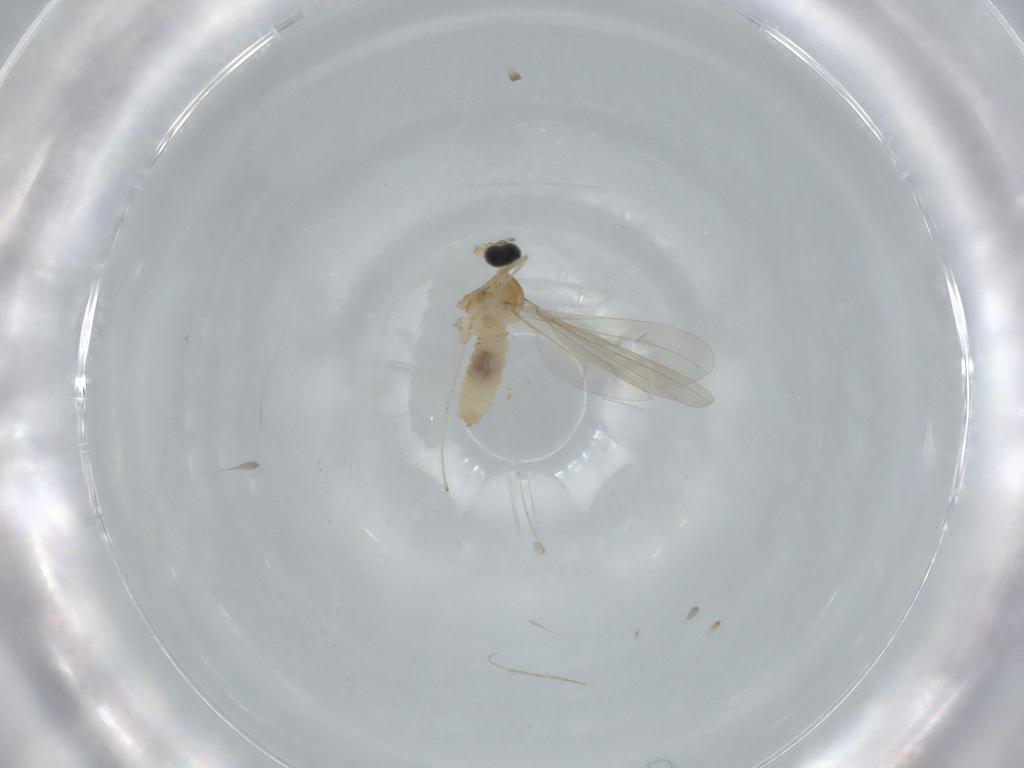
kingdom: Animalia
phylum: Arthropoda
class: Insecta
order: Diptera
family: Cecidomyiidae
